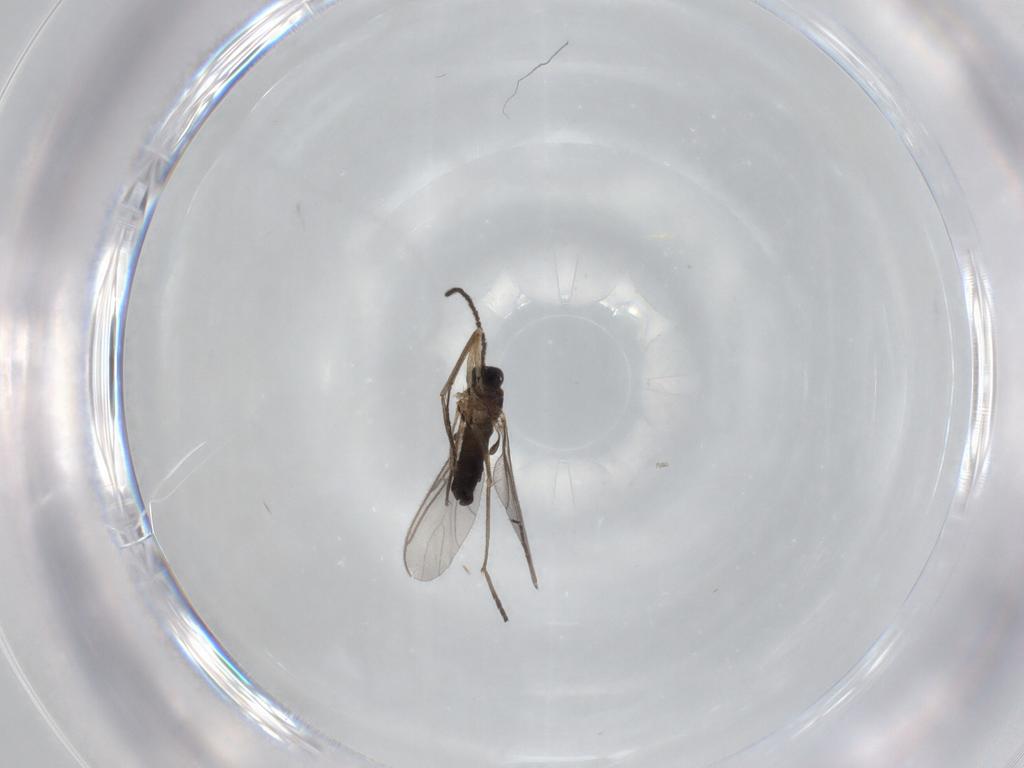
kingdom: Animalia
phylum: Arthropoda
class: Insecta
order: Diptera
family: Sciaridae
